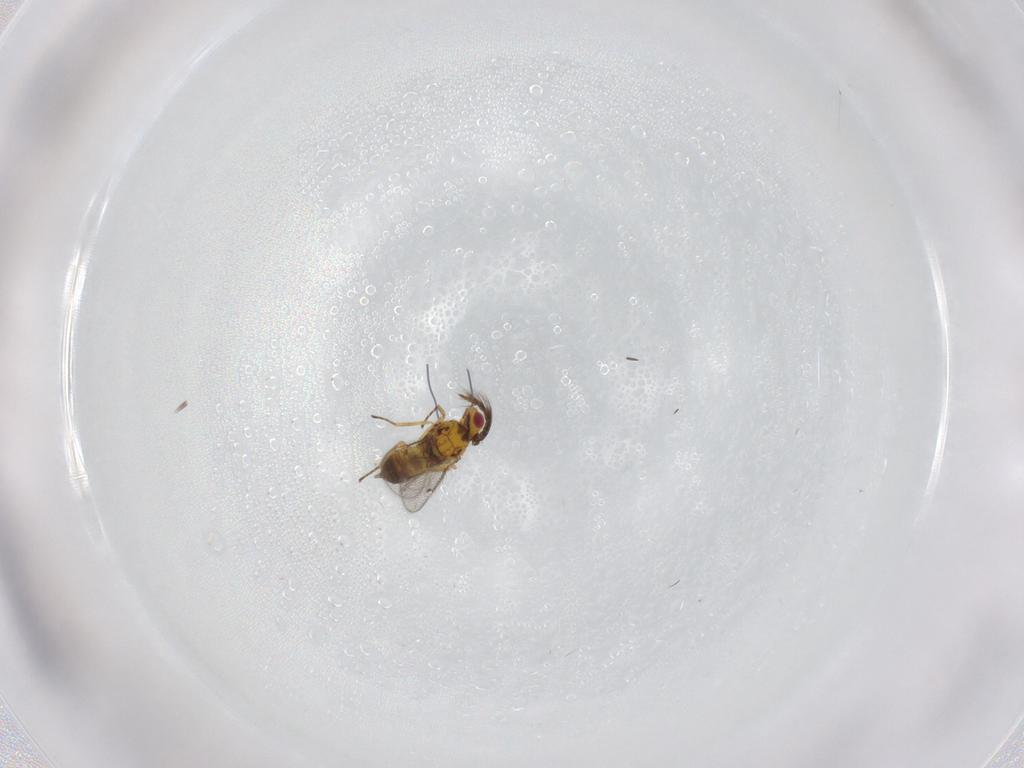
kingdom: Animalia
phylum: Arthropoda
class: Insecta
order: Hymenoptera
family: Eulophidae
